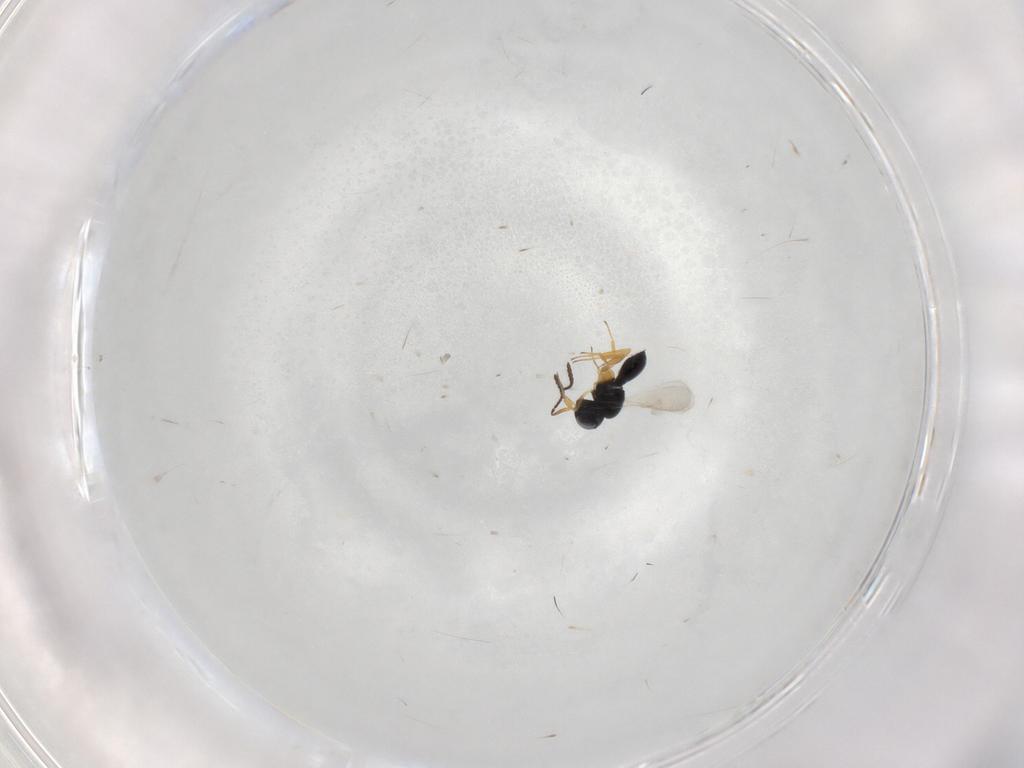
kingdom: Animalia
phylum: Arthropoda
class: Insecta
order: Hymenoptera
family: Scelionidae
